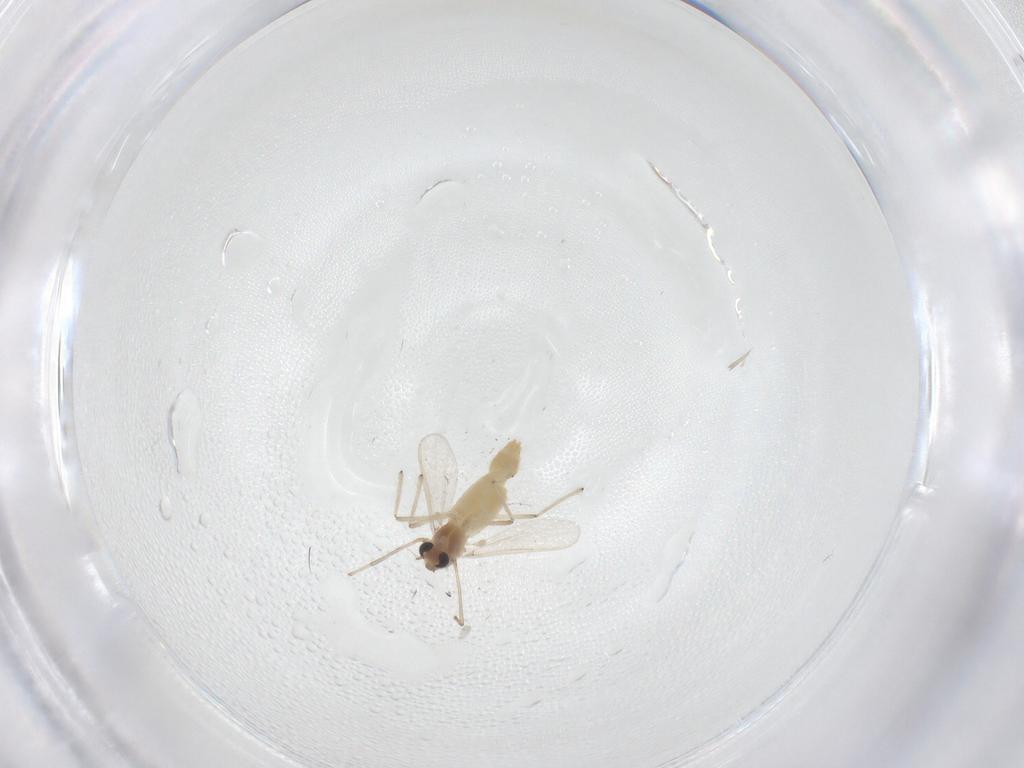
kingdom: Animalia
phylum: Arthropoda
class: Insecta
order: Diptera
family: Chironomidae
